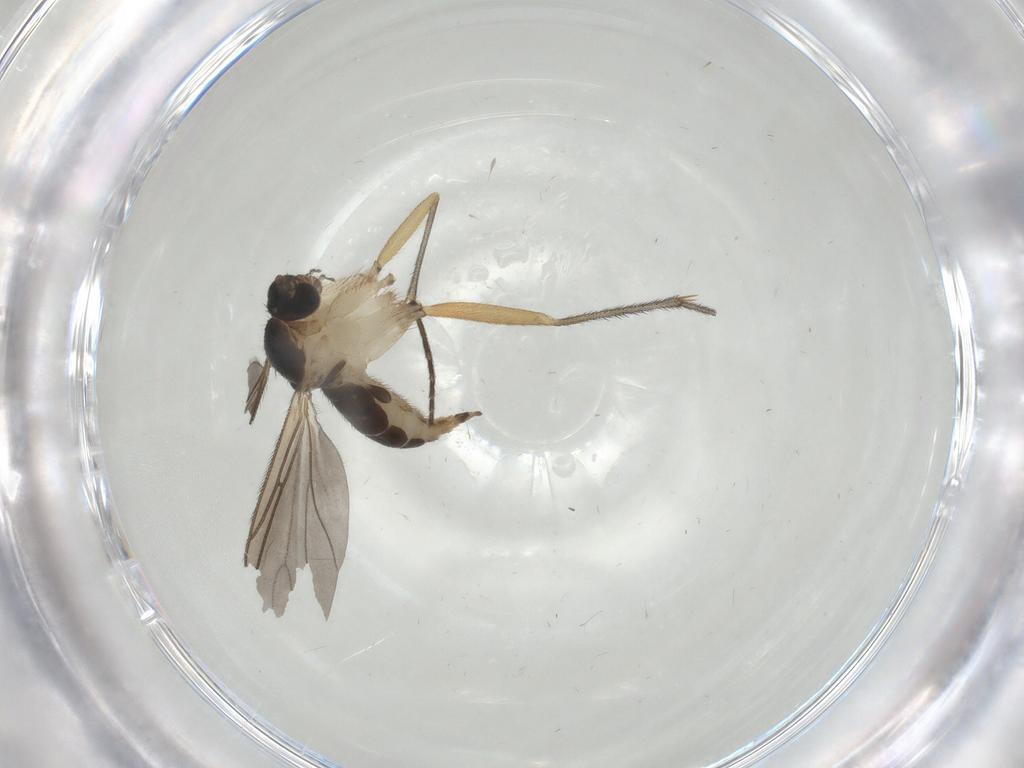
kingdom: Animalia
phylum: Arthropoda
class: Insecta
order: Diptera
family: Sciaridae
